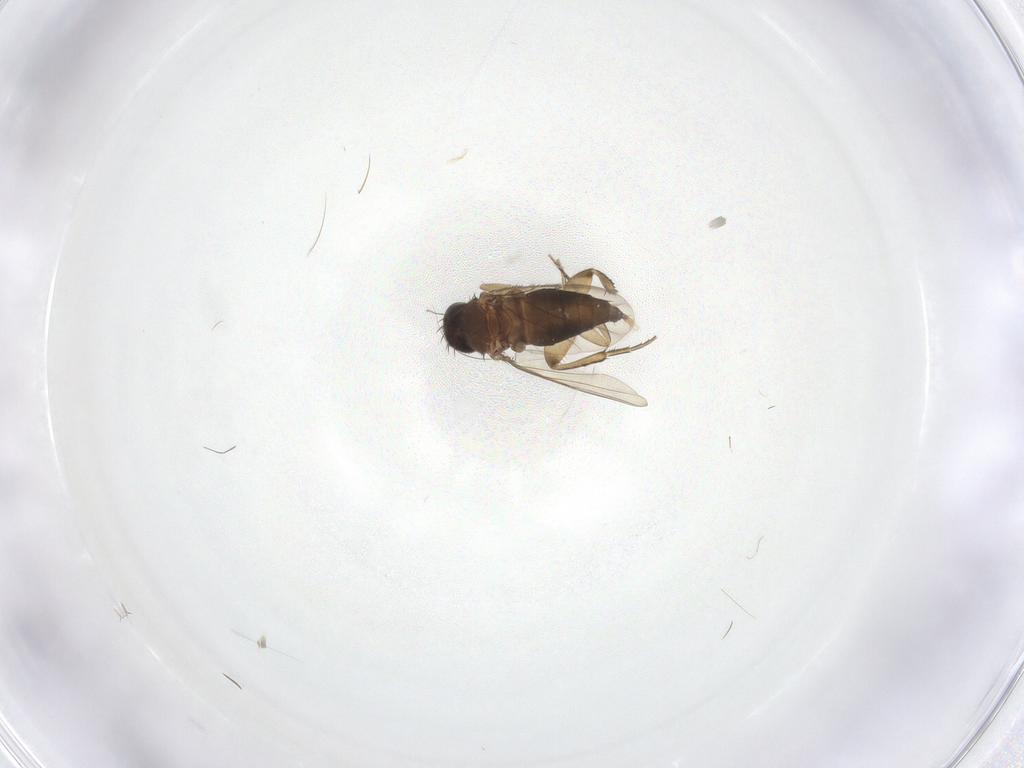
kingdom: Animalia
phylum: Arthropoda
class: Insecta
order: Diptera
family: Phoridae
